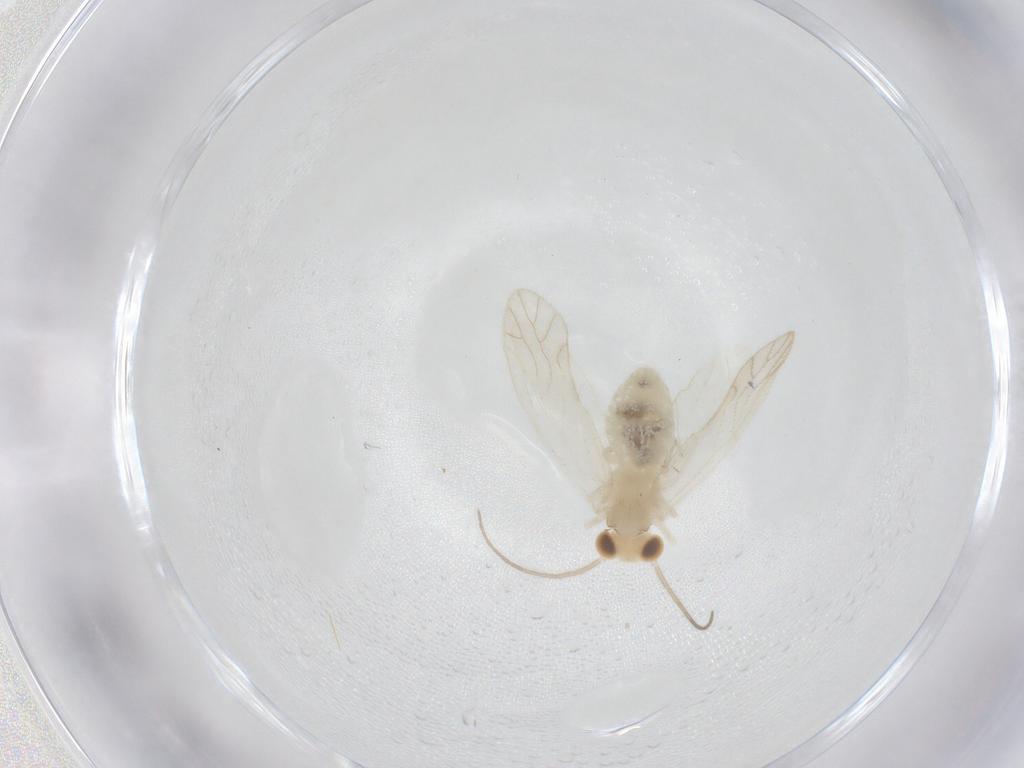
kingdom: Animalia
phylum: Arthropoda
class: Insecta
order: Psocodea
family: Caeciliusidae
